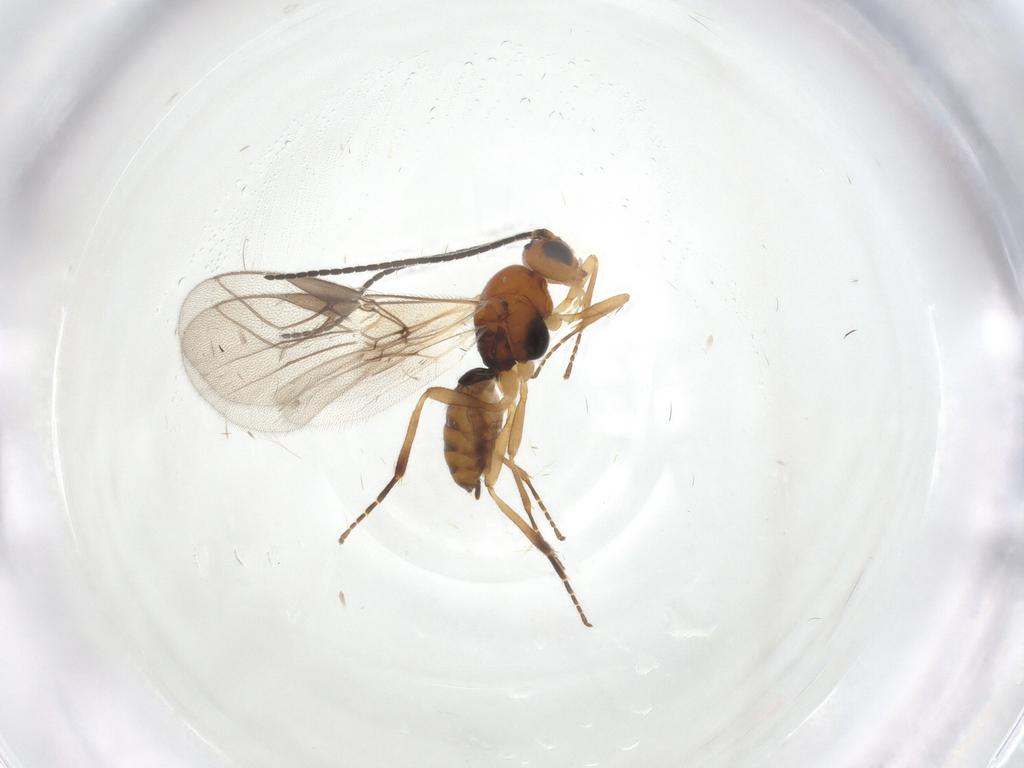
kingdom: Animalia
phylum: Arthropoda
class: Insecta
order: Hymenoptera
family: Braconidae
